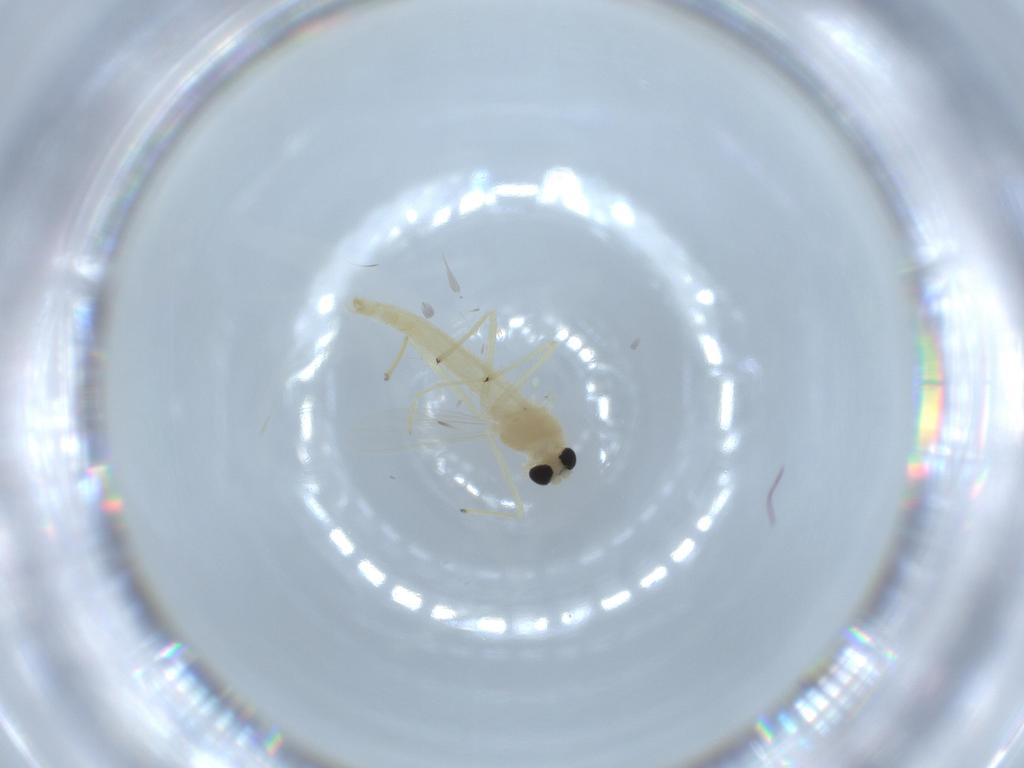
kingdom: Animalia
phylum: Arthropoda
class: Insecta
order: Diptera
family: Chironomidae
